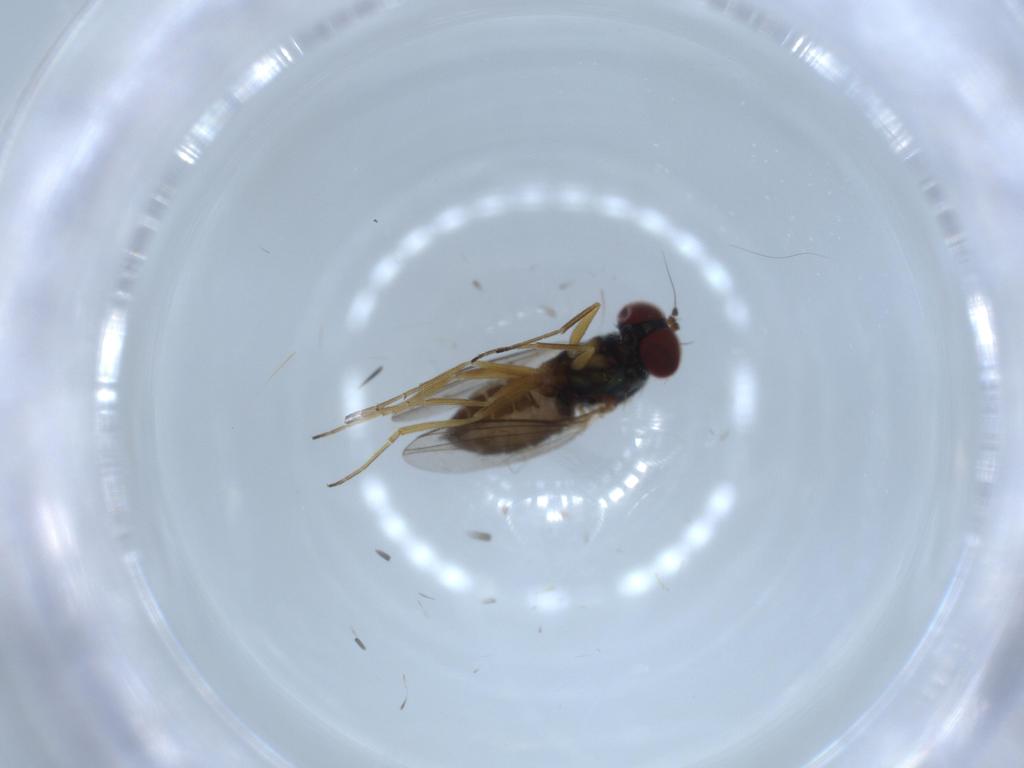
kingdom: Animalia
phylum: Arthropoda
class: Insecta
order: Diptera
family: Dolichopodidae
